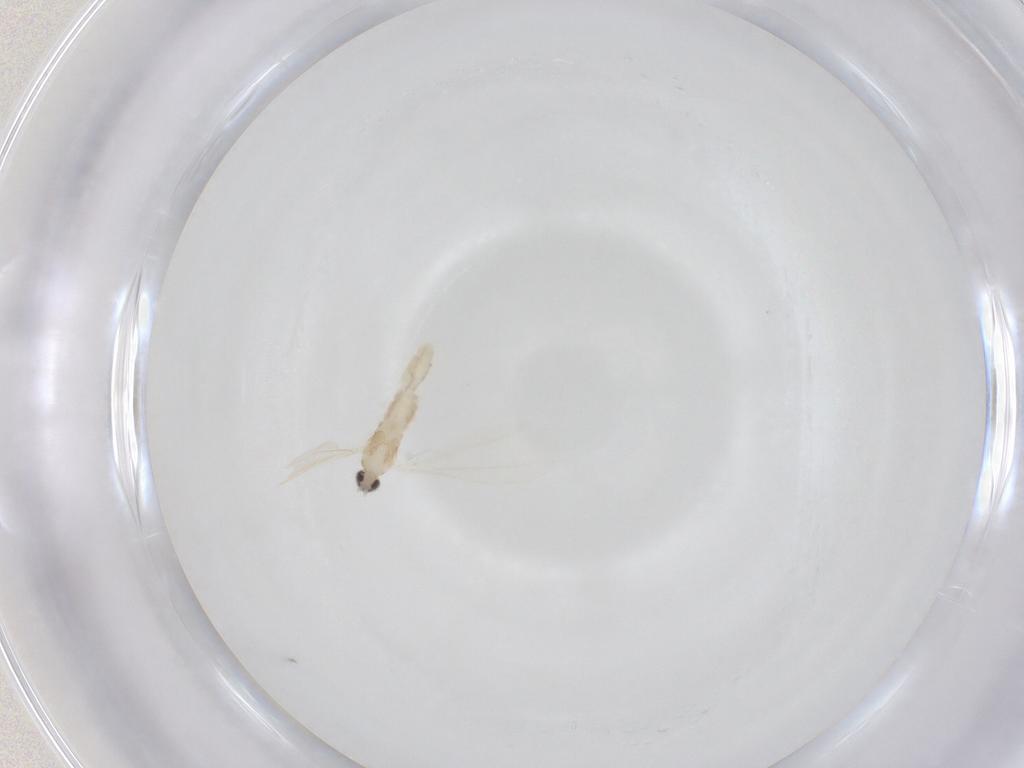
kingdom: Animalia
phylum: Arthropoda
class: Insecta
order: Diptera
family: Cecidomyiidae
